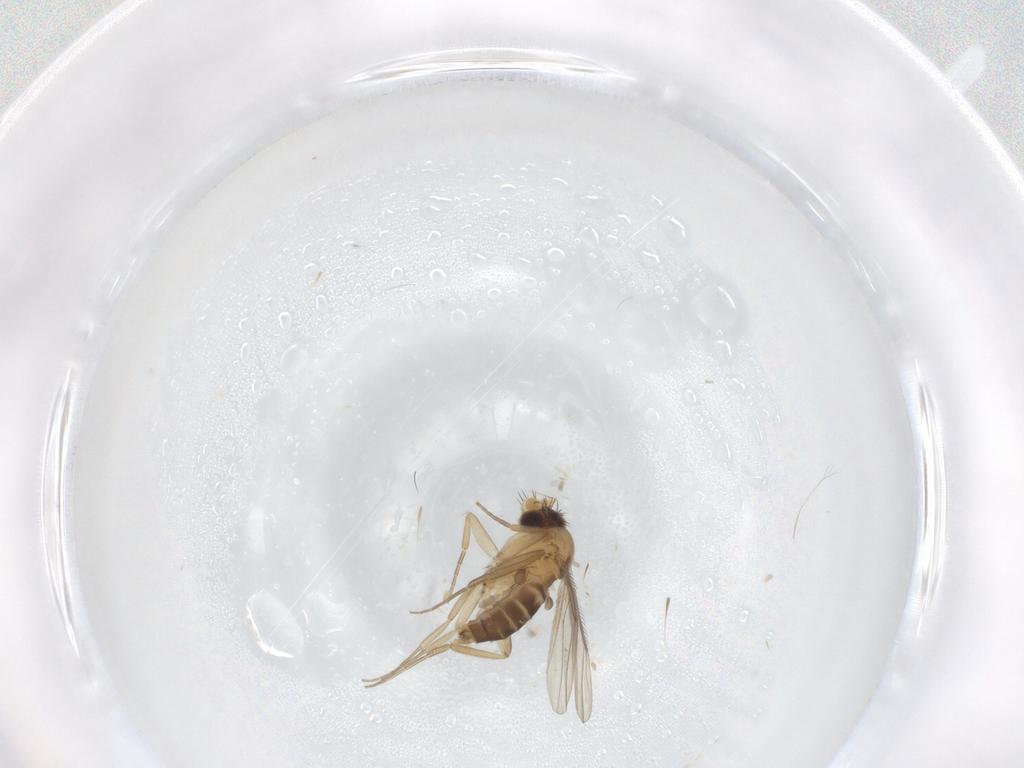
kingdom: Animalia
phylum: Arthropoda
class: Insecta
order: Diptera
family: Phoridae
